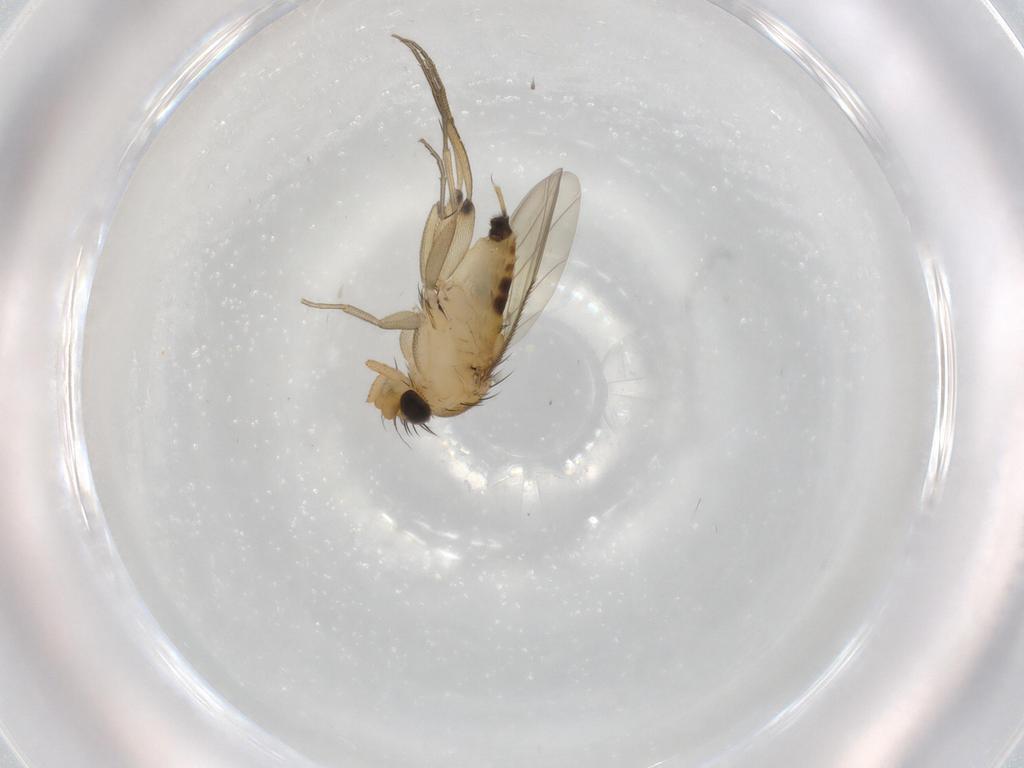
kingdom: Animalia
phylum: Arthropoda
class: Insecta
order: Diptera
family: Phoridae
